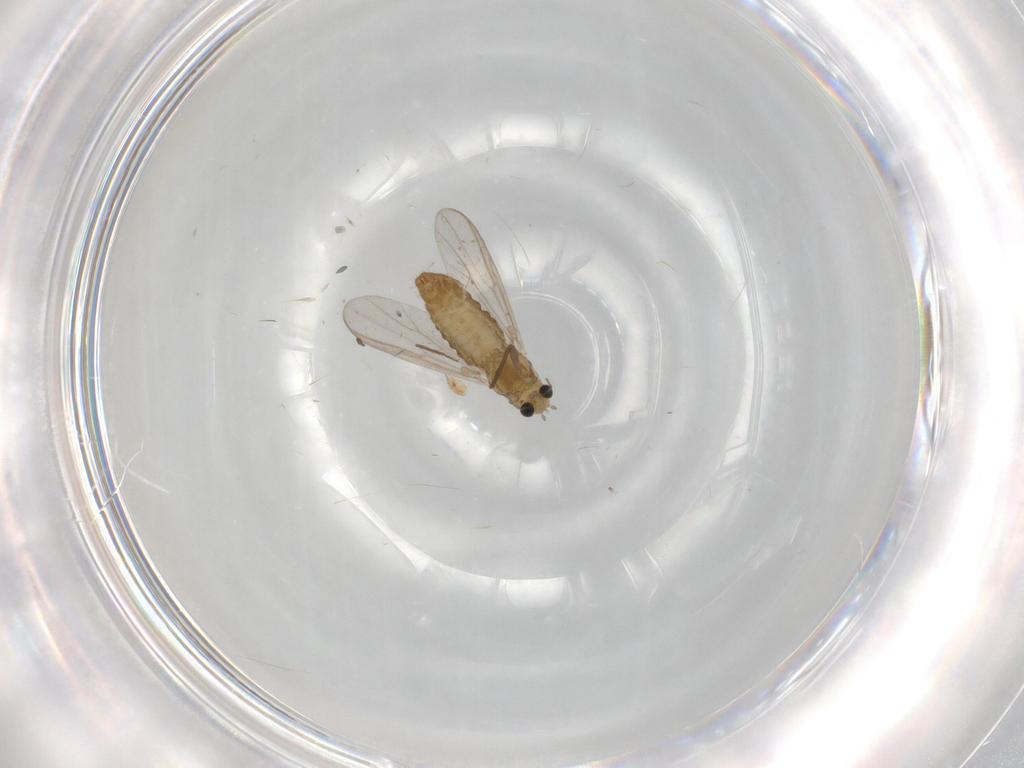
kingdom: Animalia
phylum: Arthropoda
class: Insecta
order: Diptera
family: Chironomidae
